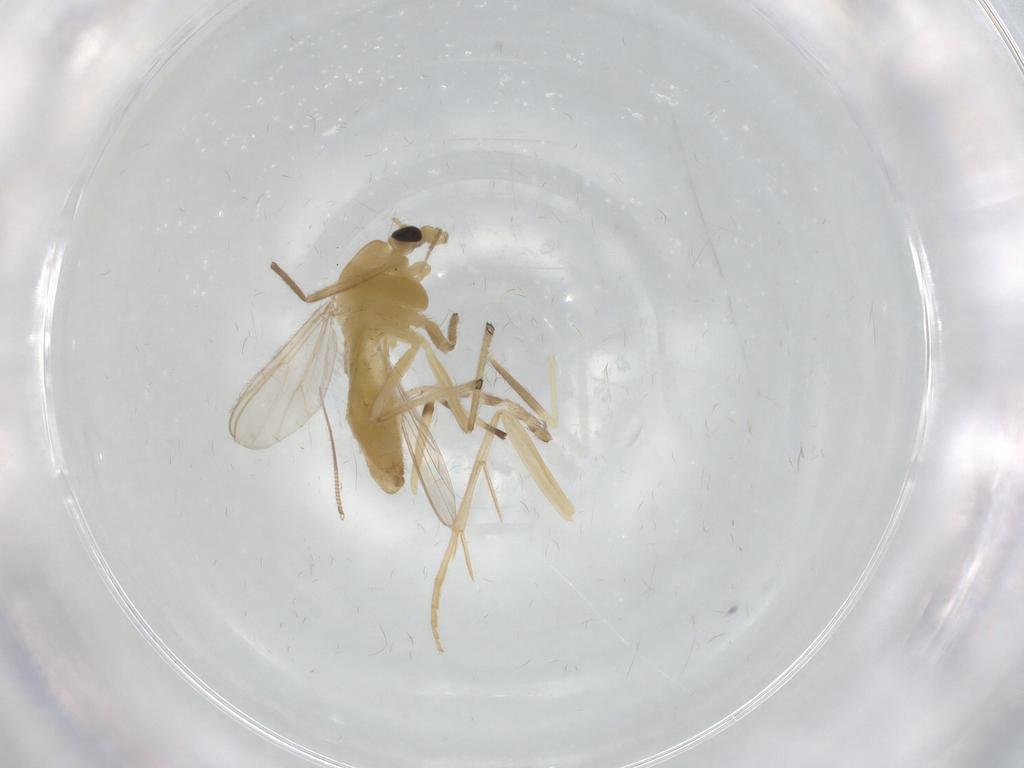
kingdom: Animalia
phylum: Arthropoda
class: Insecta
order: Diptera
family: Chironomidae
